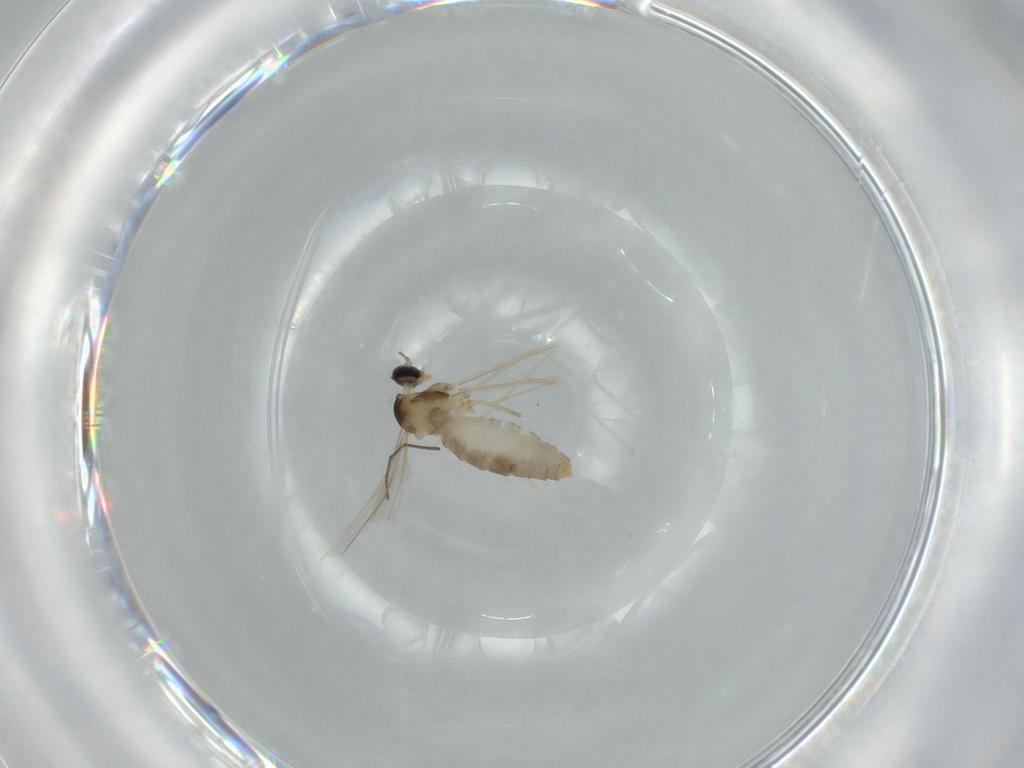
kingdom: Animalia
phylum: Arthropoda
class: Insecta
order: Diptera
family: Cecidomyiidae
